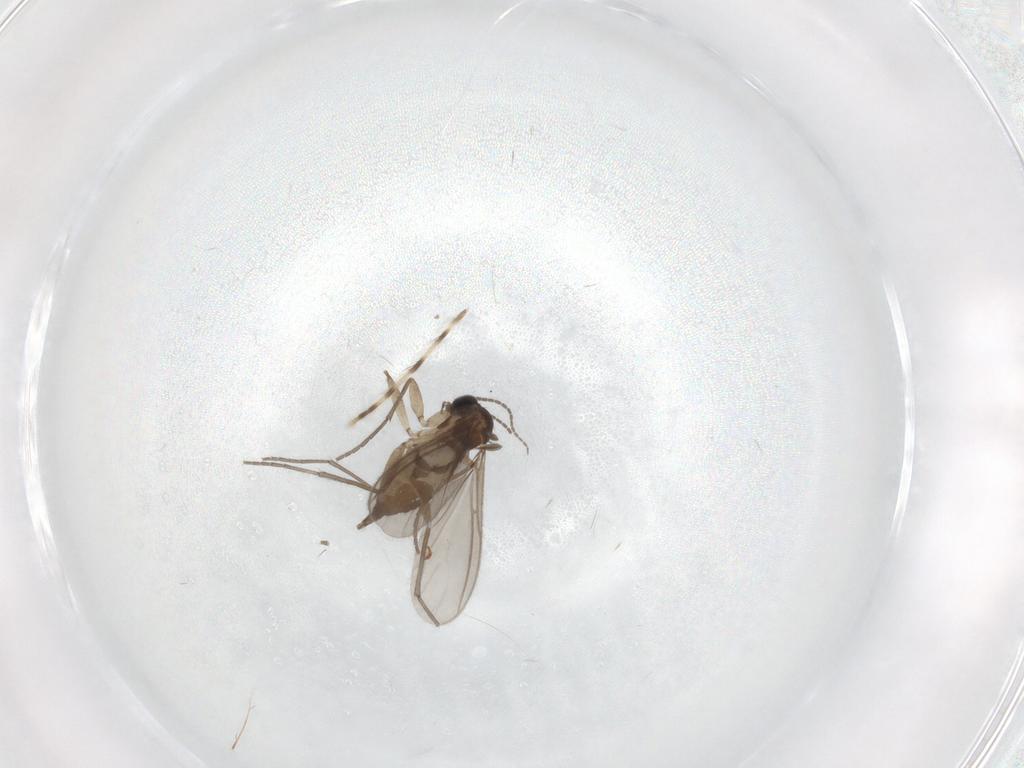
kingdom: Animalia
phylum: Arthropoda
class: Insecta
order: Diptera
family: Sciaridae
